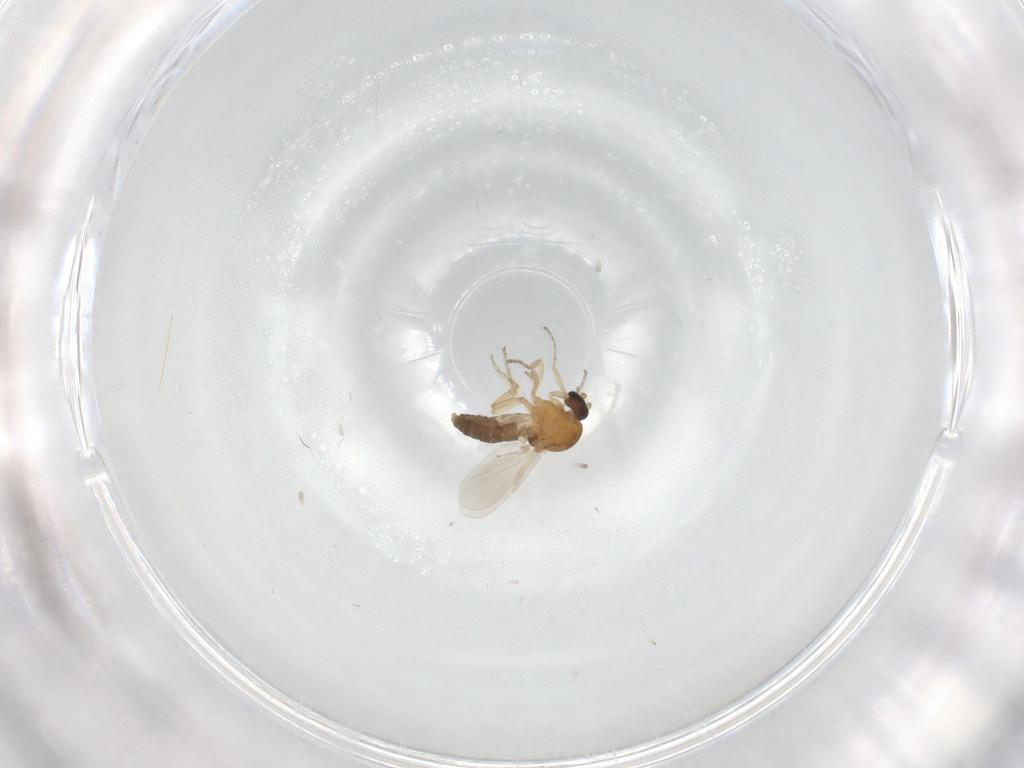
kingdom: Animalia
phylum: Arthropoda
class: Insecta
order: Diptera
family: Ceratopogonidae
